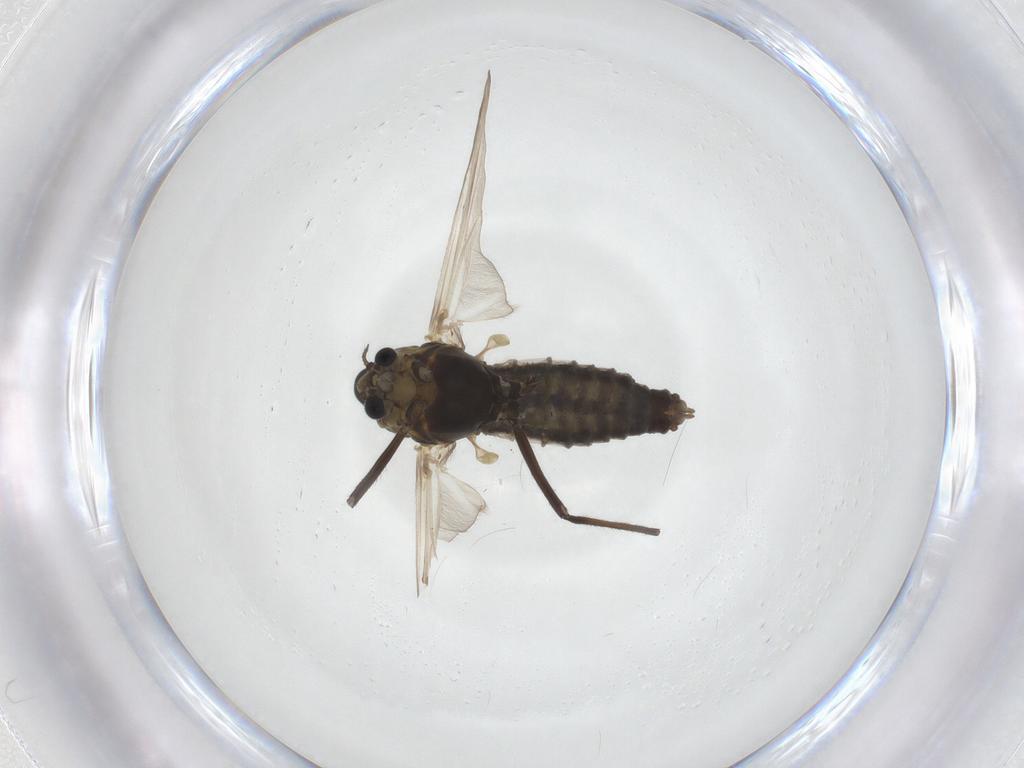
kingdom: Animalia
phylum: Arthropoda
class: Insecta
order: Diptera
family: Chironomidae
